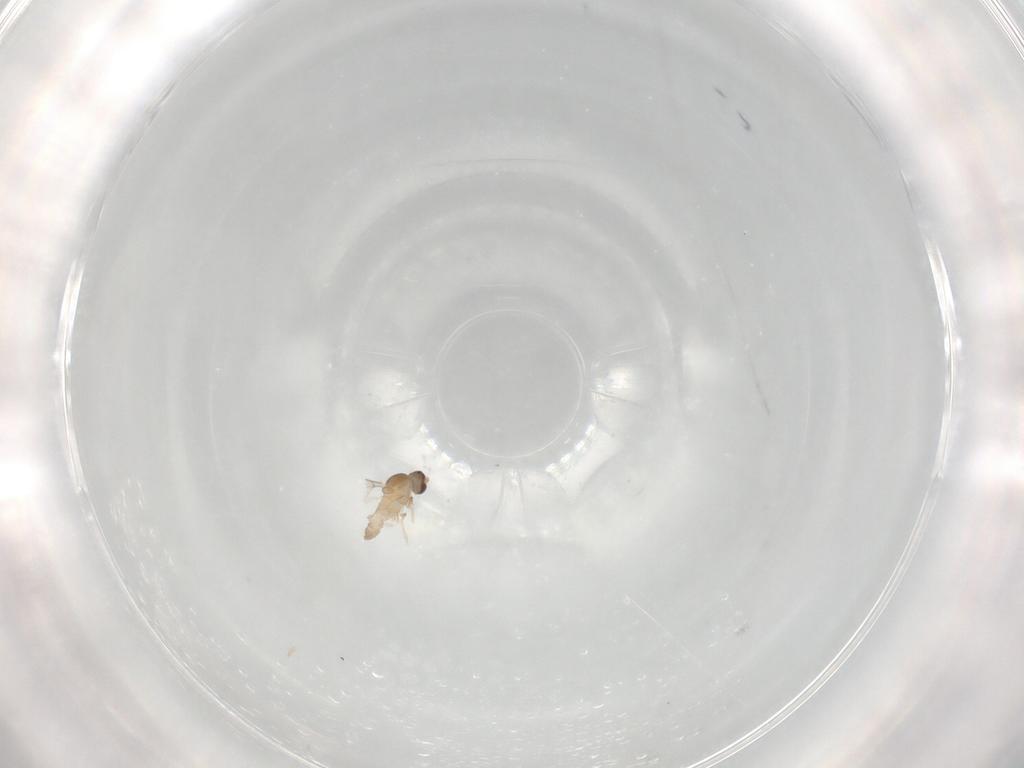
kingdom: Animalia
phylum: Arthropoda
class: Insecta
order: Diptera
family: Cecidomyiidae
